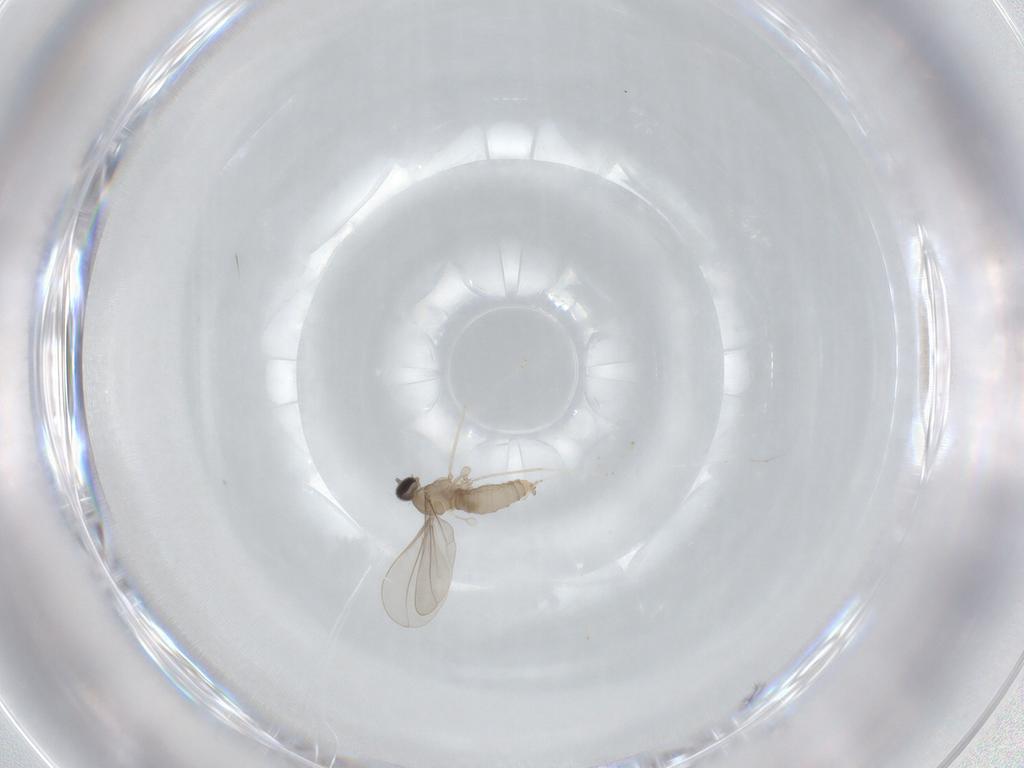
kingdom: Animalia
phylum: Arthropoda
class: Insecta
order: Diptera
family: Cecidomyiidae
